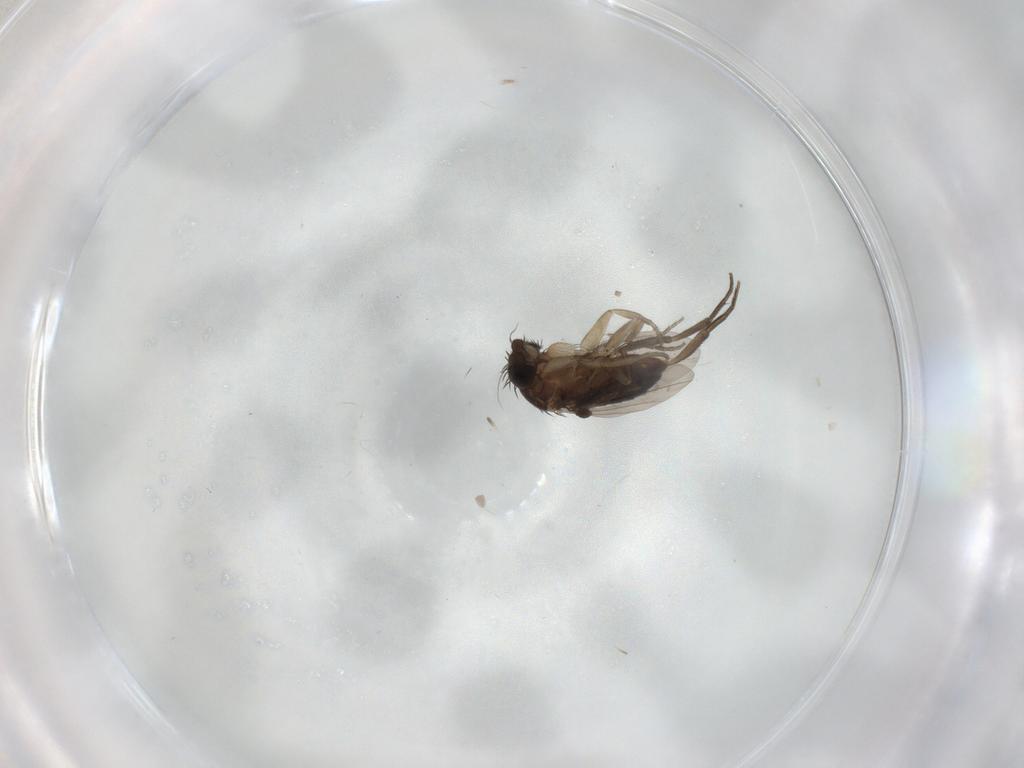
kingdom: Animalia
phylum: Arthropoda
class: Insecta
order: Diptera
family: Phoridae
